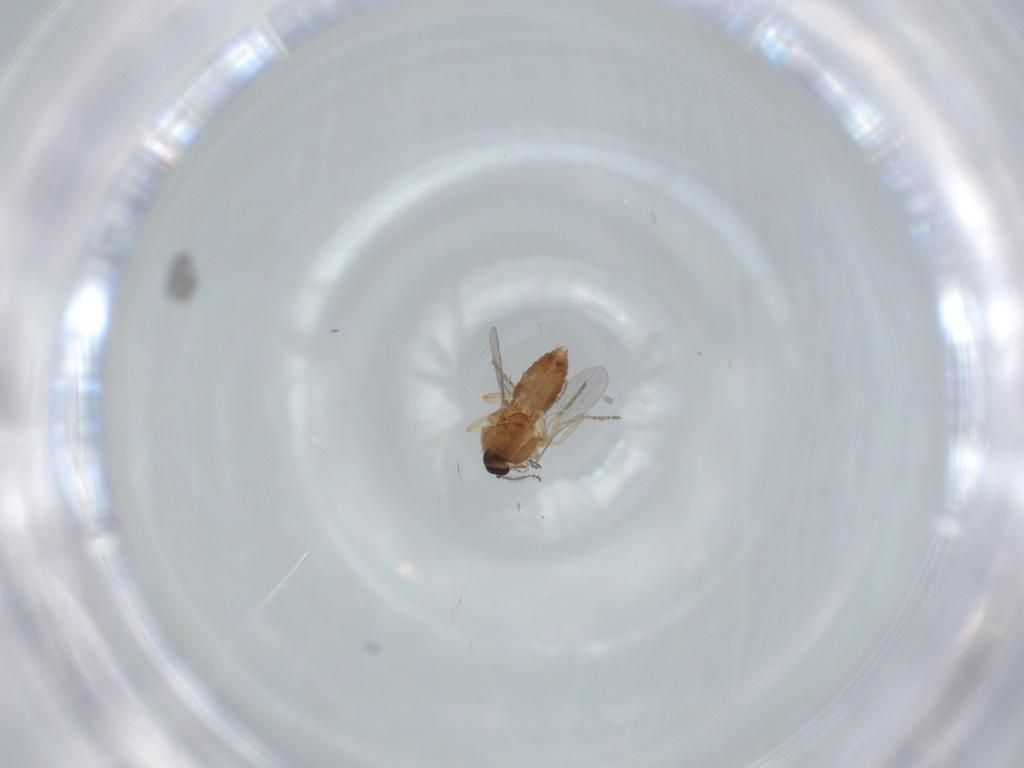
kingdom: Animalia
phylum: Arthropoda
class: Insecta
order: Diptera
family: Ceratopogonidae
